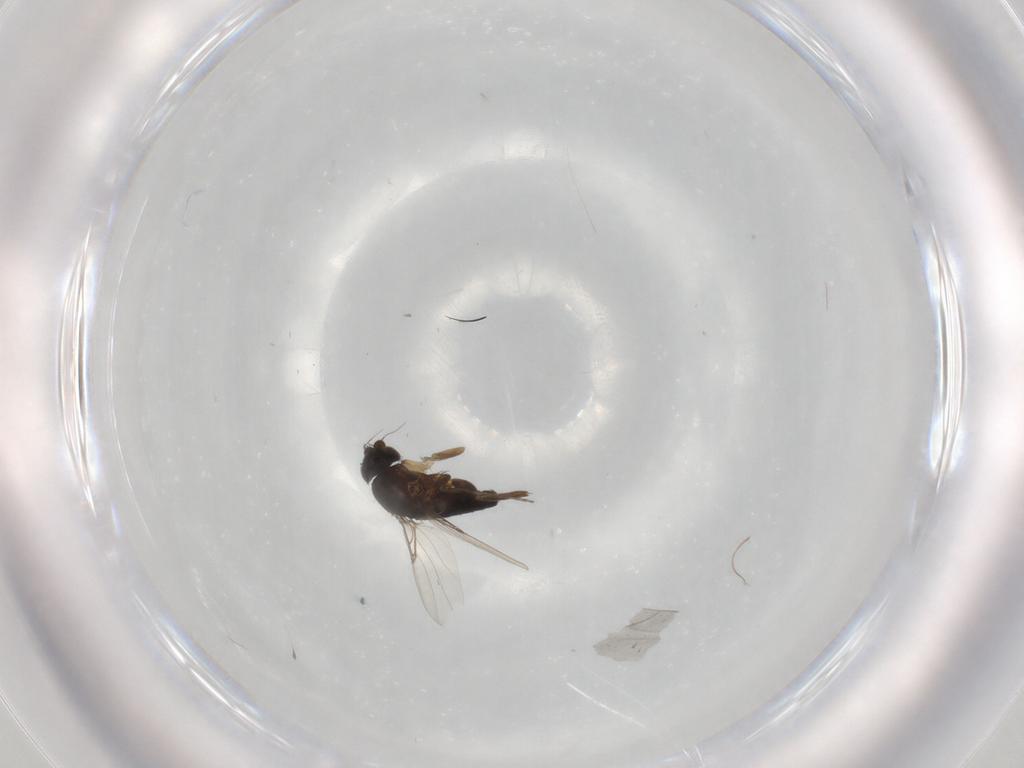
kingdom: Animalia
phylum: Arthropoda
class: Insecta
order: Diptera
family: Phoridae
